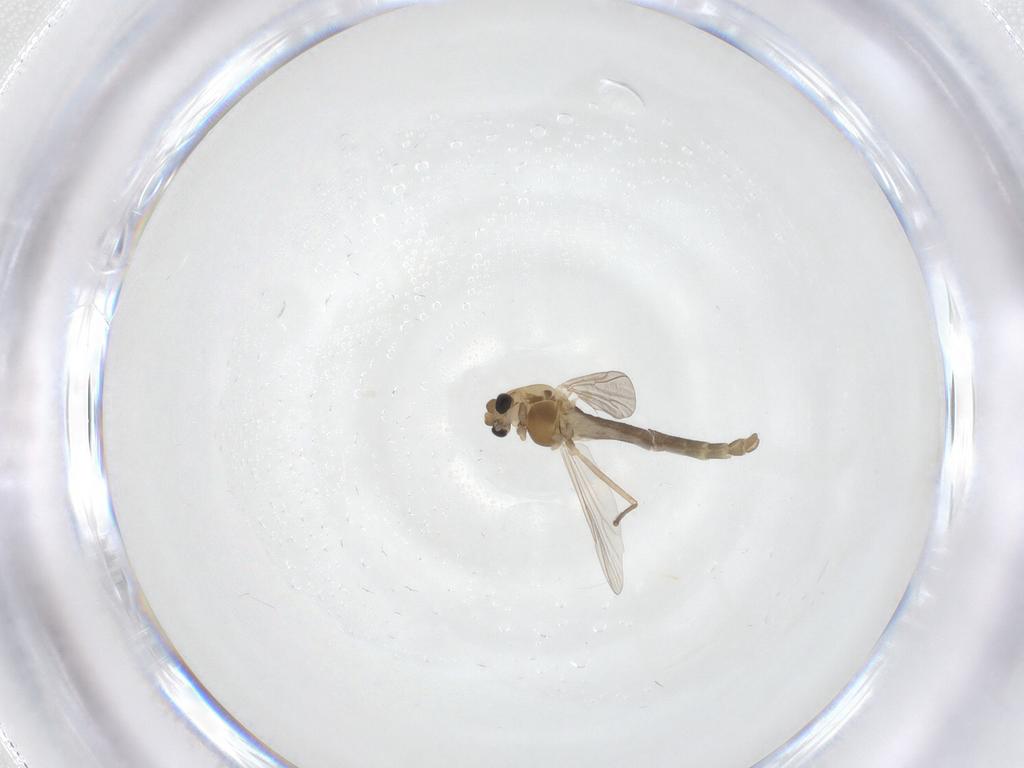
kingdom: Animalia
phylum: Arthropoda
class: Insecta
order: Diptera
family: Chironomidae
